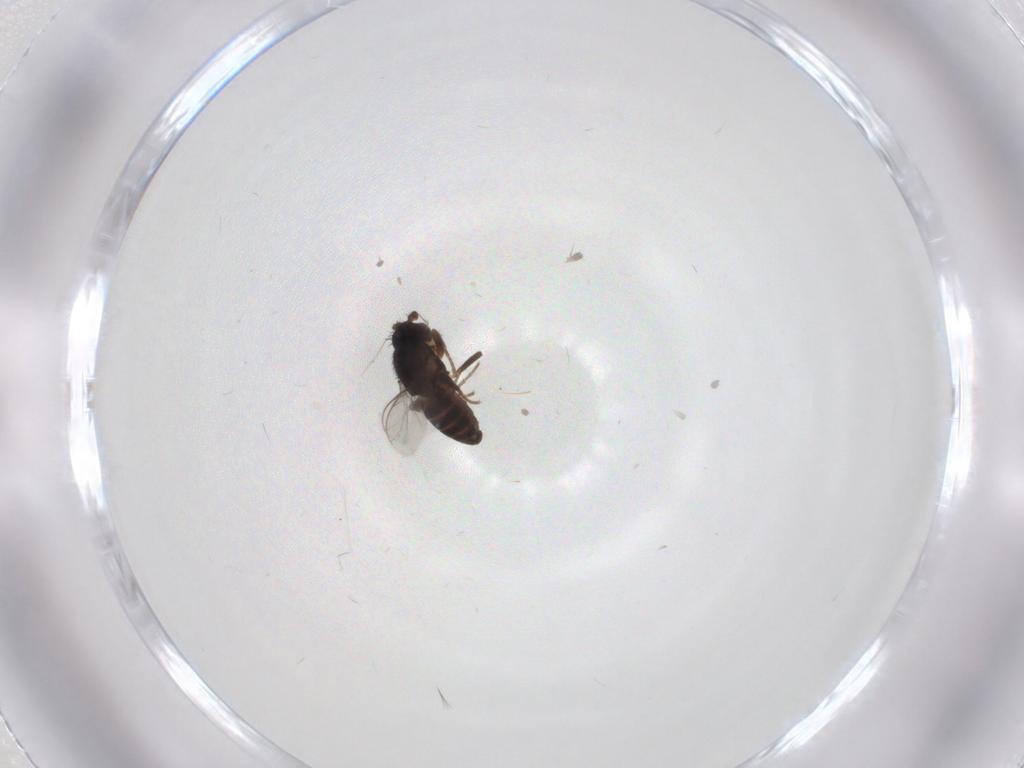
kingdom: Animalia
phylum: Arthropoda
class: Insecta
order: Diptera
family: Sphaeroceridae
